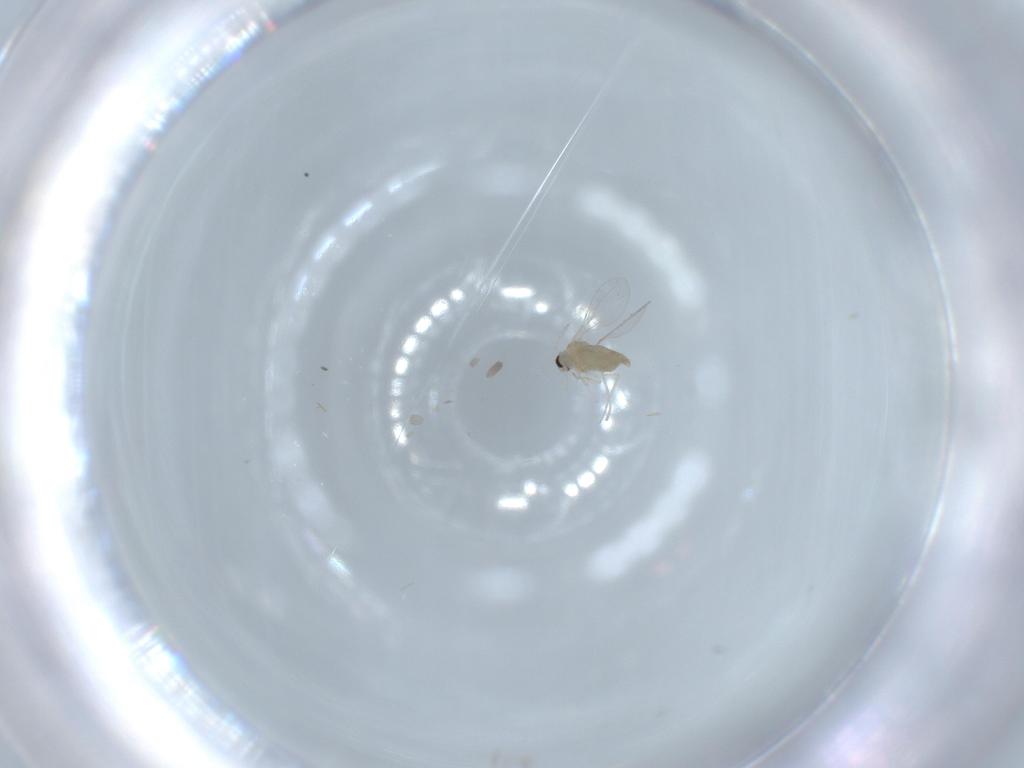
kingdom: Animalia
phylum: Arthropoda
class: Insecta
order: Diptera
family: Cecidomyiidae
